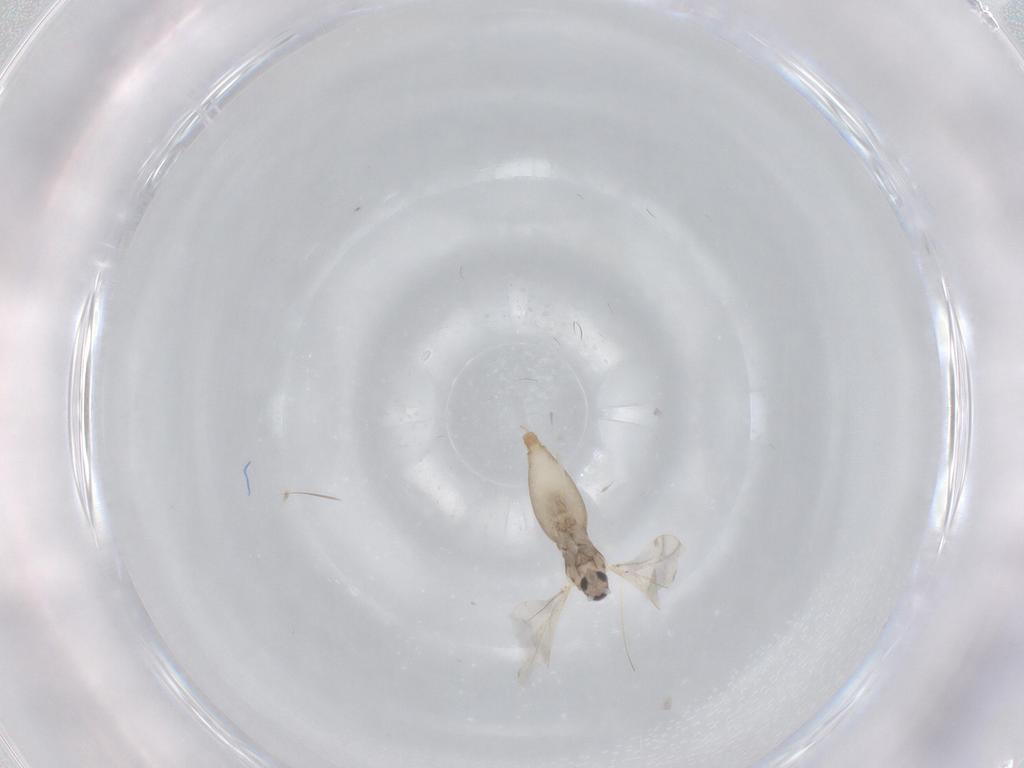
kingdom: Animalia
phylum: Arthropoda
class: Insecta
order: Diptera
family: Cecidomyiidae
